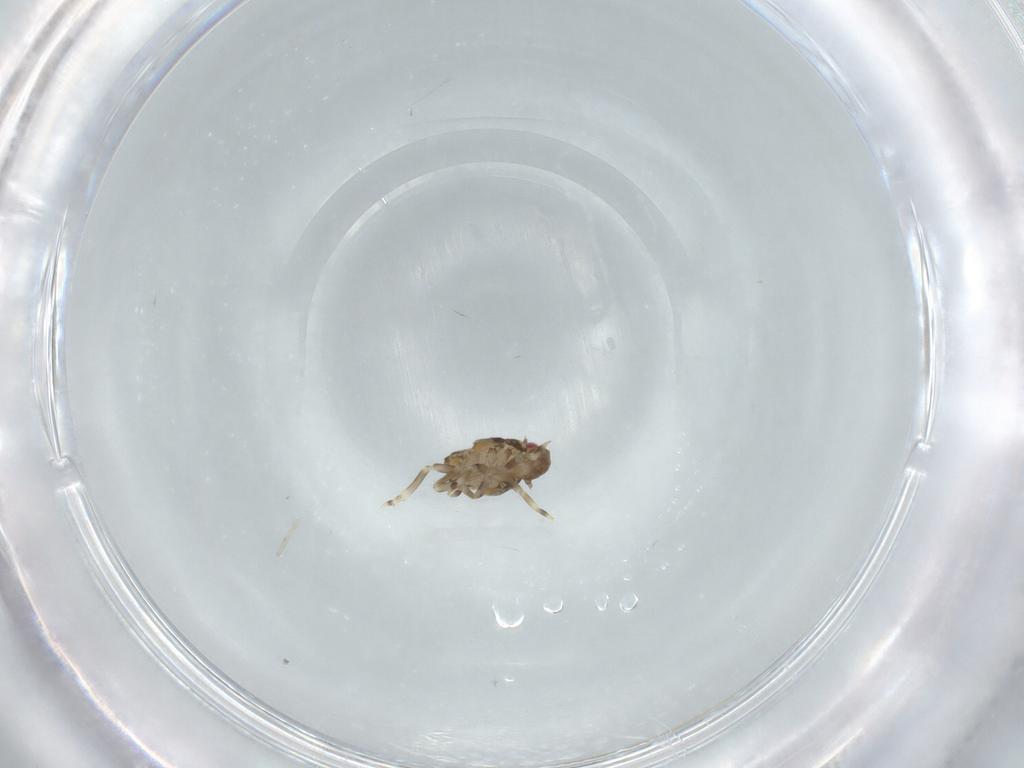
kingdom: Animalia
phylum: Arthropoda
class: Insecta
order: Hemiptera
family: Flatidae
